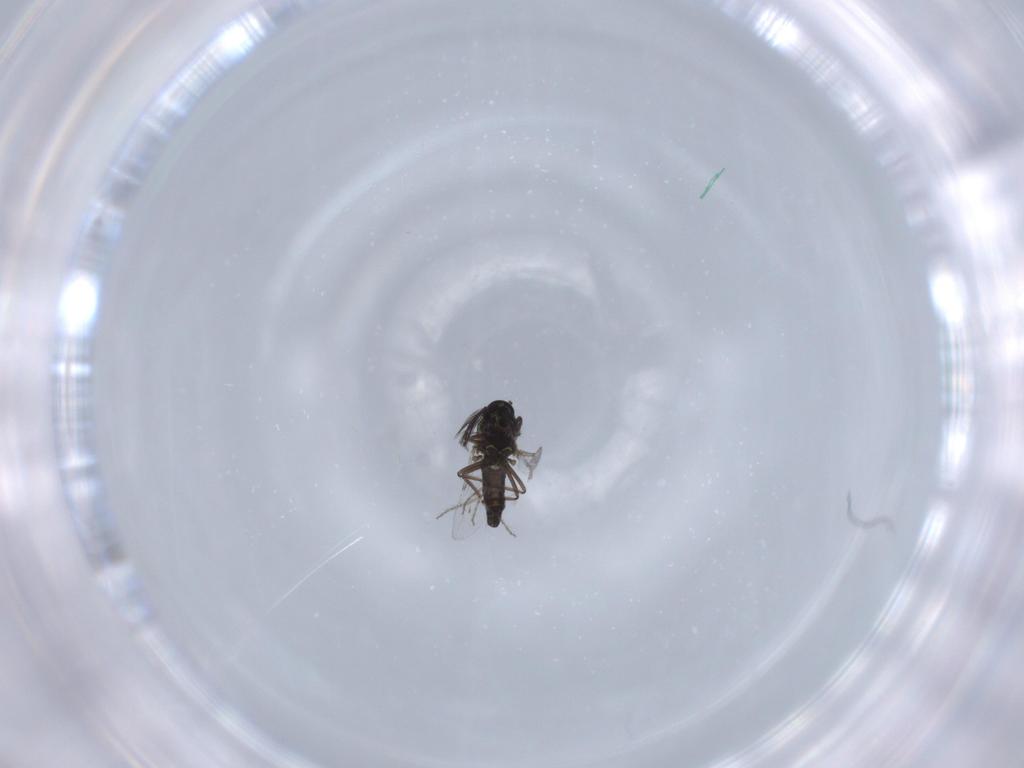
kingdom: Animalia
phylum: Arthropoda
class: Insecta
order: Diptera
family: Ceratopogonidae
